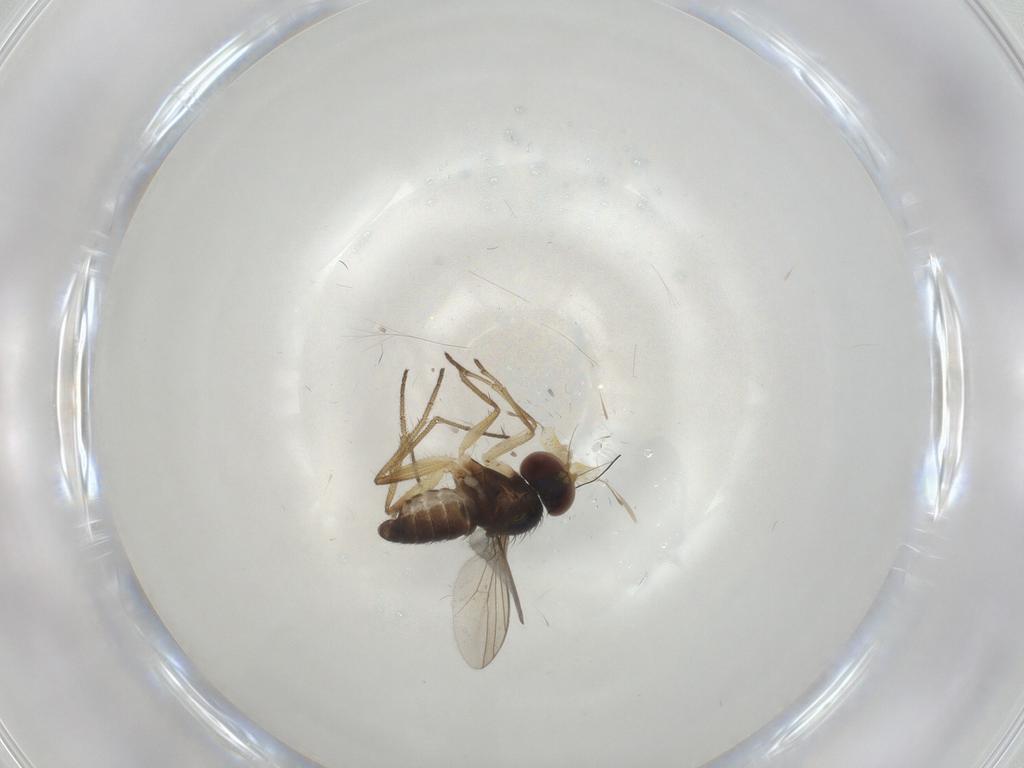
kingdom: Animalia
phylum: Arthropoda
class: Insecta
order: Diptera
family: Dolichopodidae
